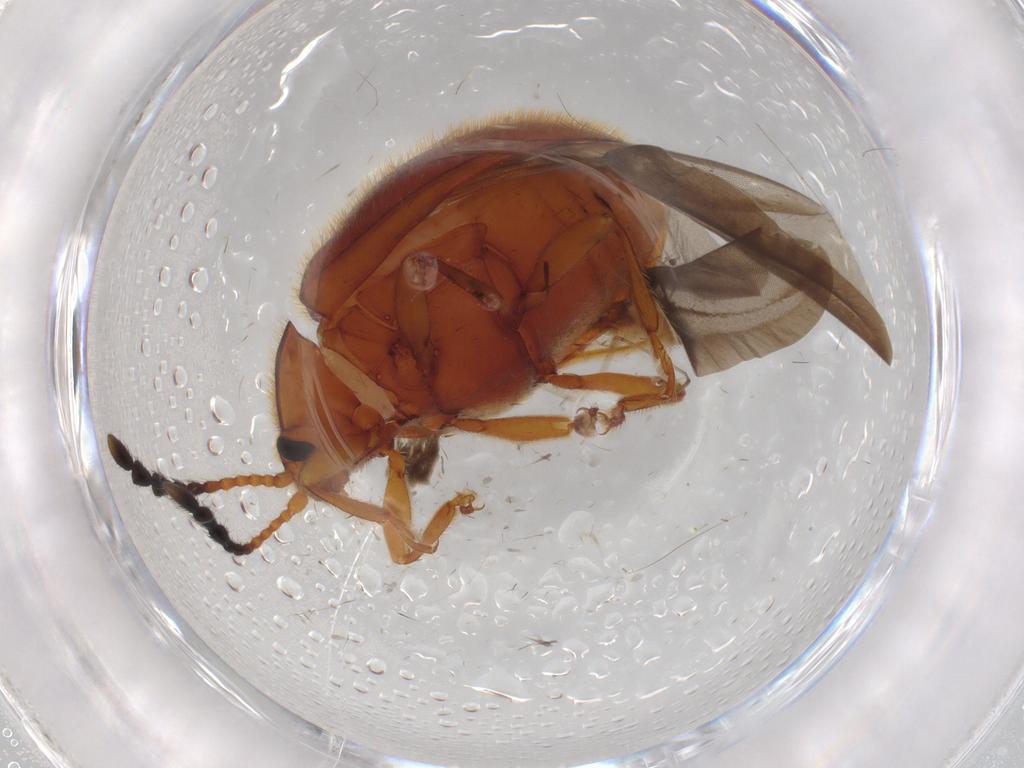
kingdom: Animalia
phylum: Arthropoda
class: Insecta
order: Coleoptera
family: Endomychidae
